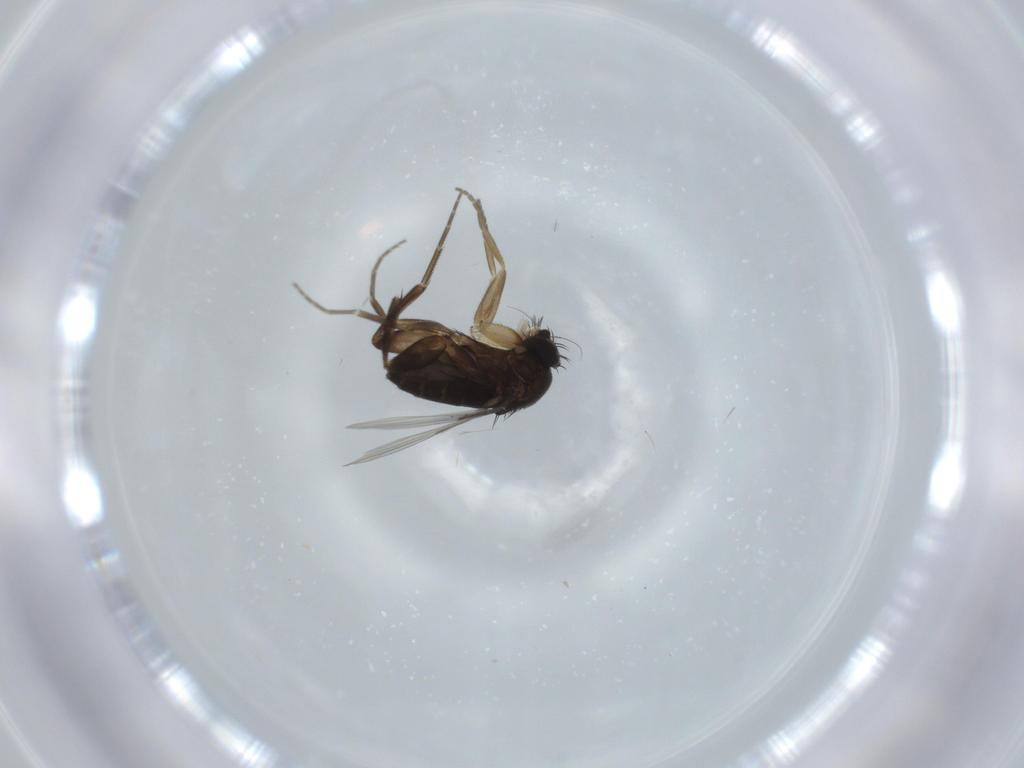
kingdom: Animalia
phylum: Arthropoda
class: Insecta
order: Diptera
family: Phoridae
